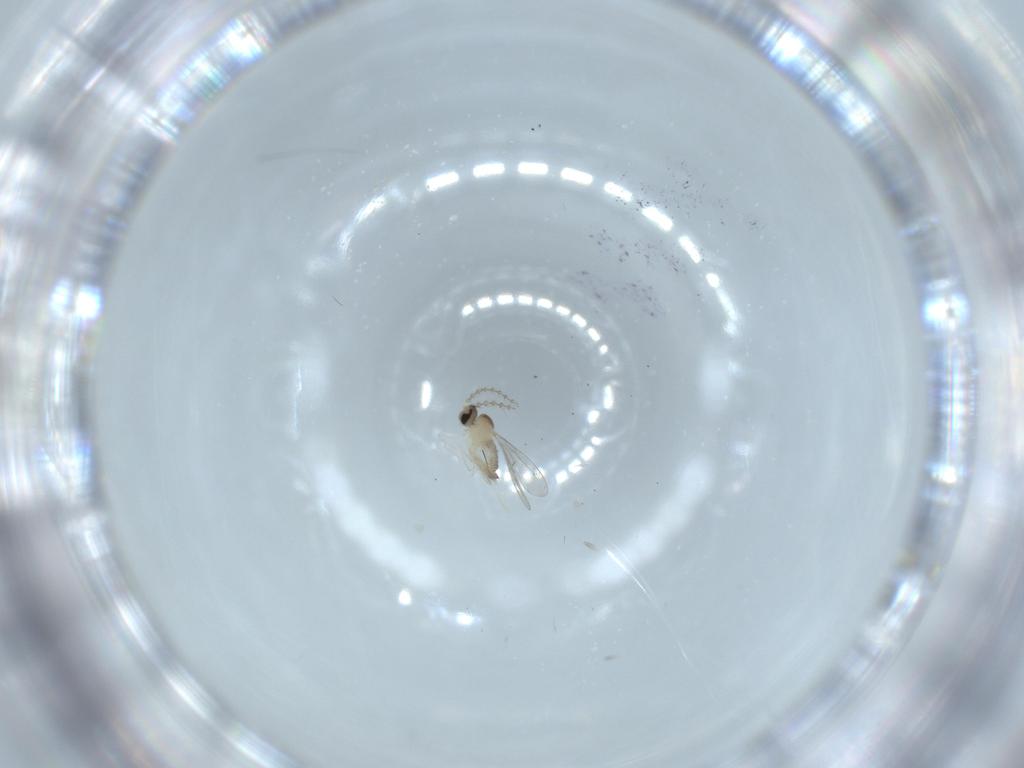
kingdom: Animalia
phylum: Arthropoda
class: Insecta
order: Diptera
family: Cecidomyiidae
